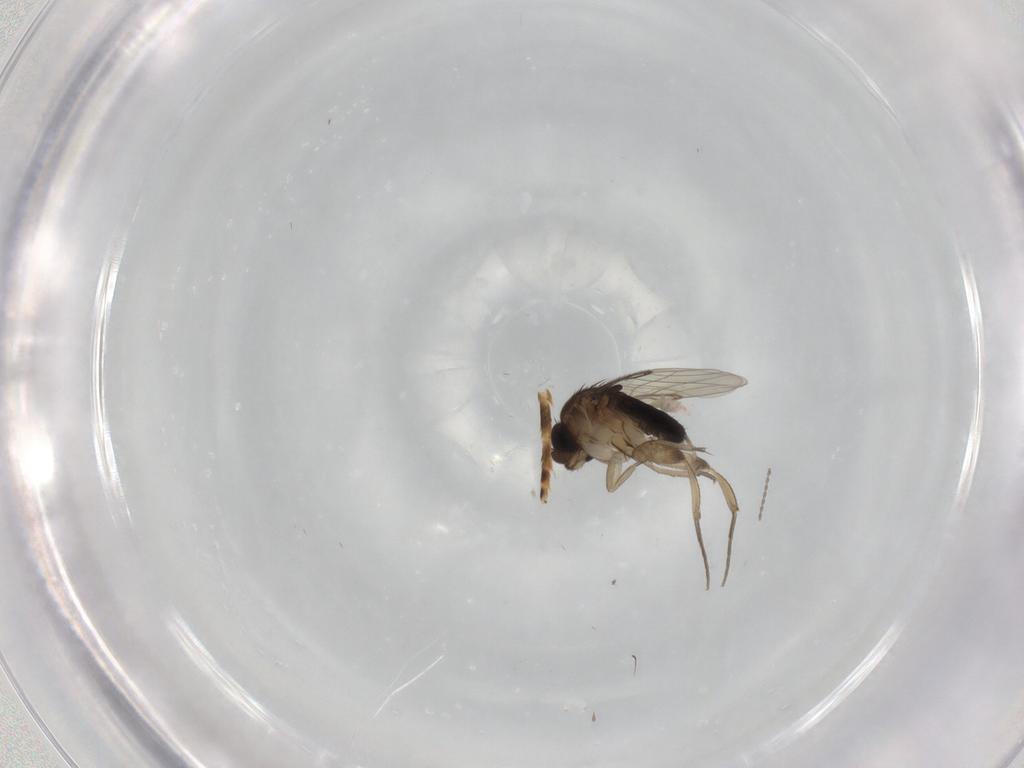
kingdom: Animalia
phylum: Arthropoda
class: Insecta
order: Diptera
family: Phoridae
